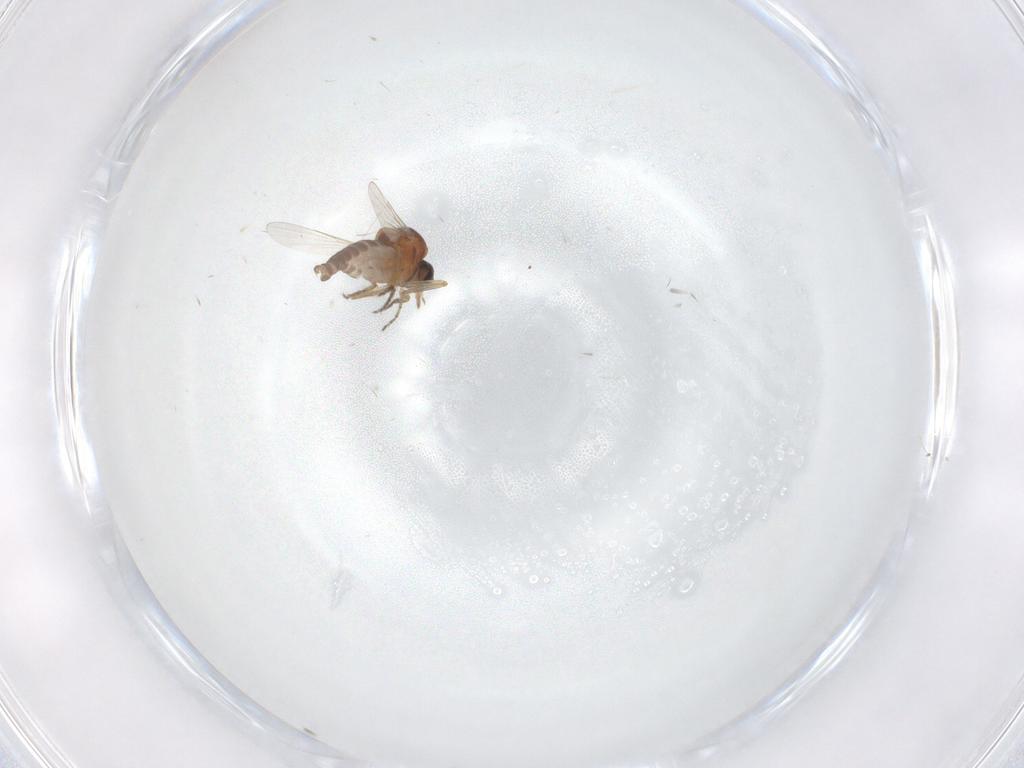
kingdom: Animalia
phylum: Arthropoda
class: Insecta
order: Diptera
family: Ceratopogonidae
